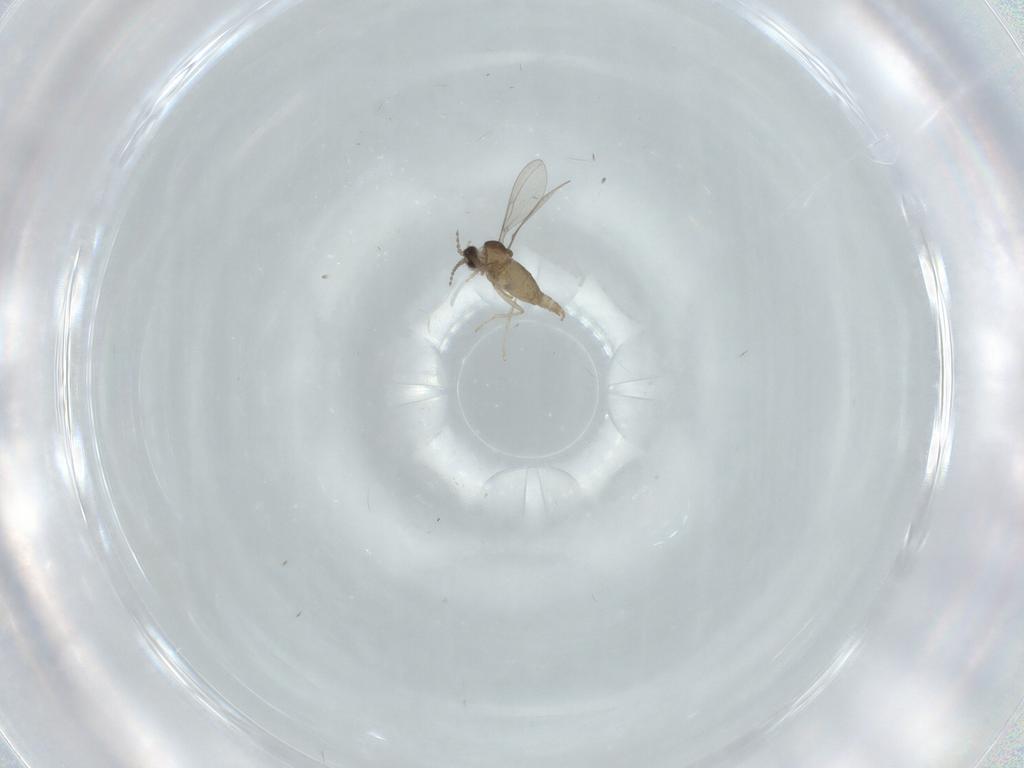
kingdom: Animalia
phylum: Arthropoda
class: Insecta
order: Diptera
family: Cecidomyiidae
